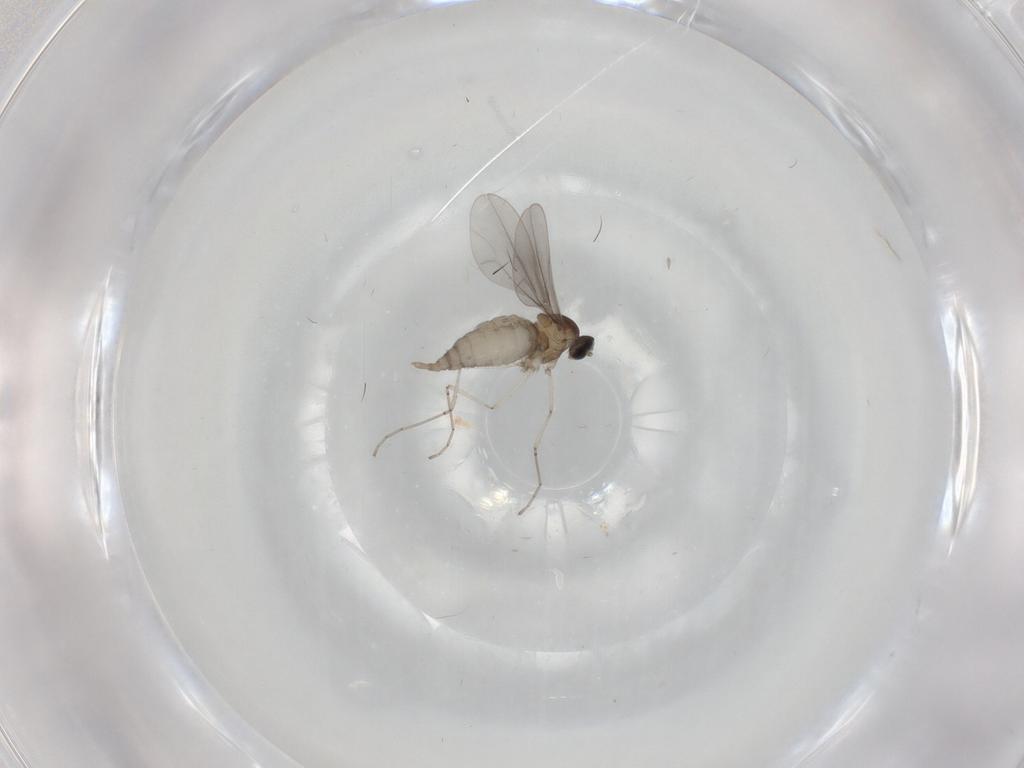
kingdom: Animalia
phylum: Arthropoda
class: Insecta
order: Diptera
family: Cecidomyiidae
